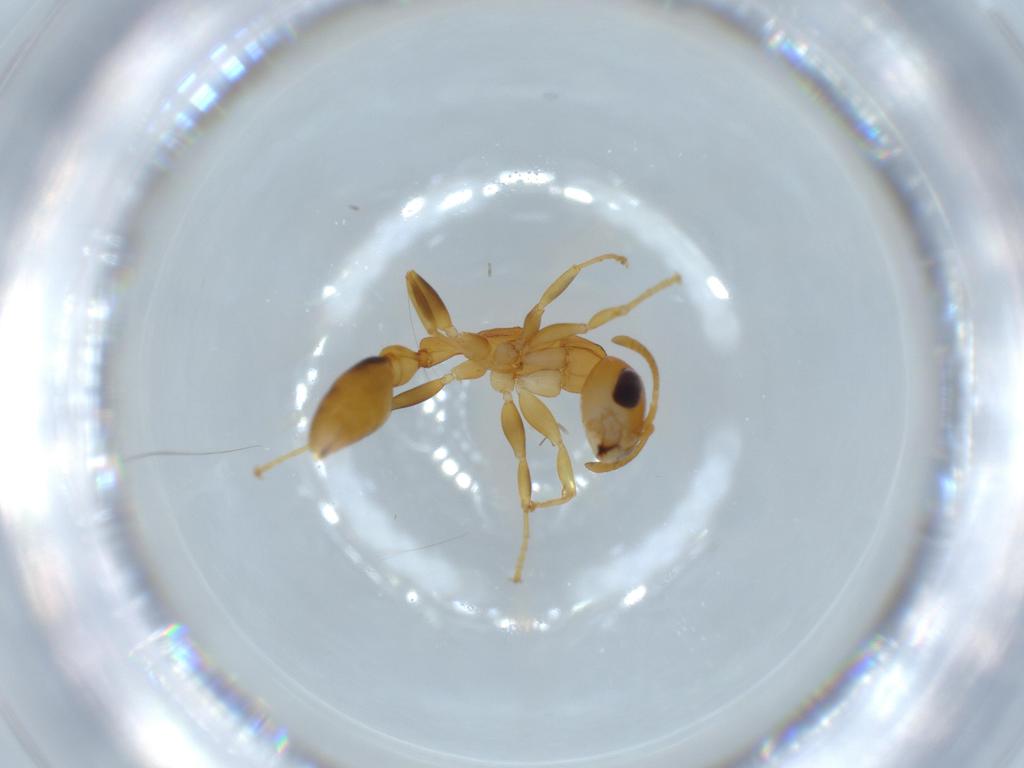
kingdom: Animalia
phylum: Arthropoda
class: Insecta
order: Hymenoptera
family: Formicidae
